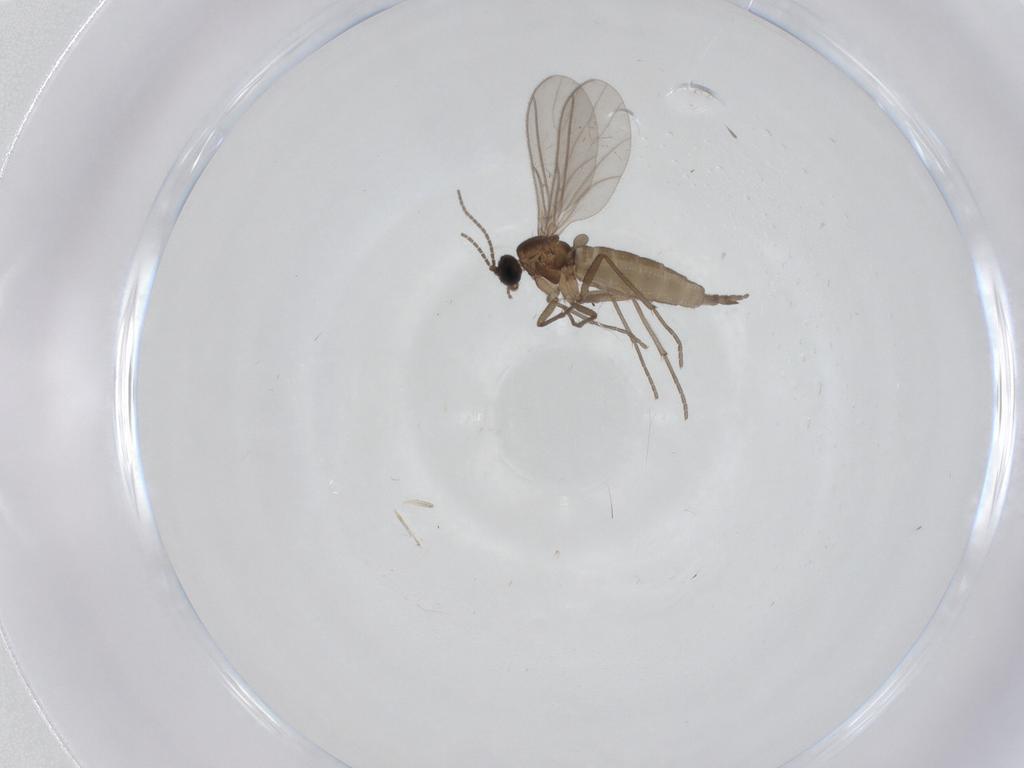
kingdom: Animalia
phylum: Arthropoda
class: Insecta
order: Diptera
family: Sciaridae
